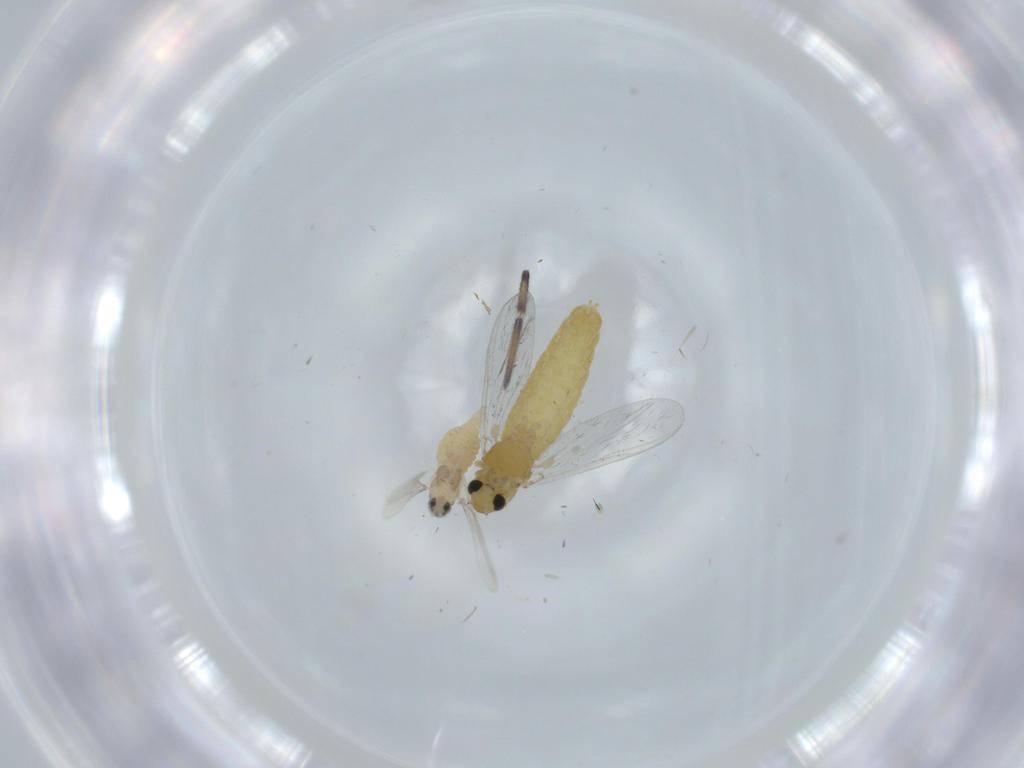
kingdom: Animalia
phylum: Arthropoda
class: Insecta
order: Diptera
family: Chironomidae
